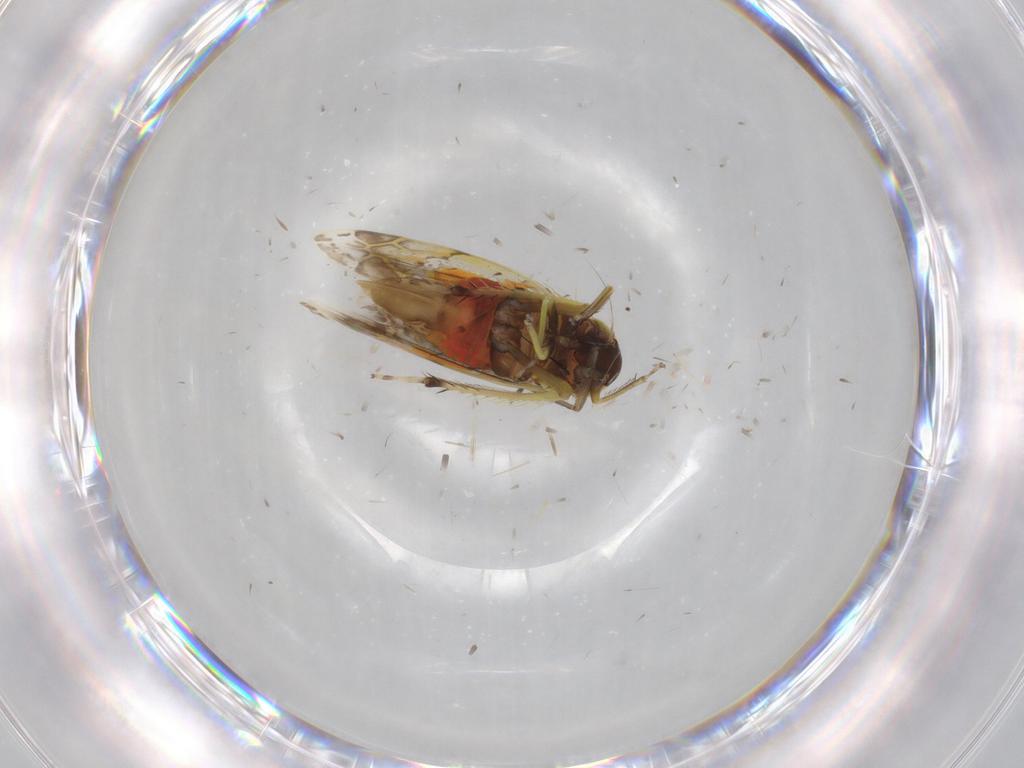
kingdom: Animalia
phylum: Arthropoda
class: Insecta
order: Hemiptera
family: Cicadellidae
